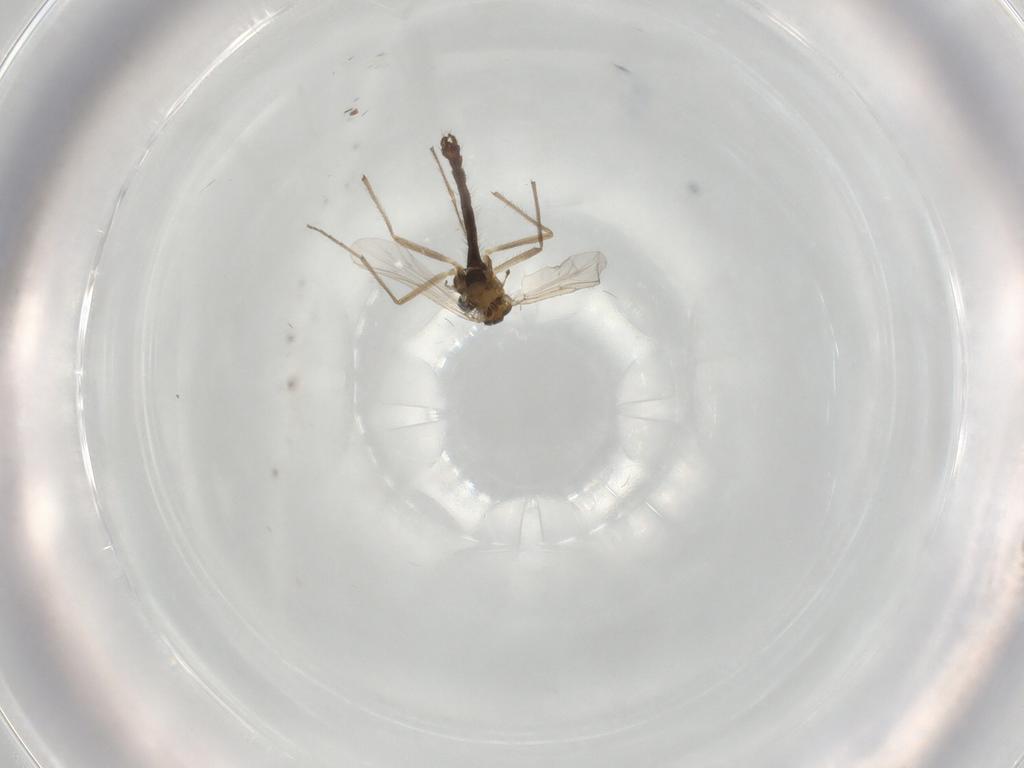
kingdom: Animalia
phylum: Arthropoda
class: Insecta
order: Diptera
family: Chironomidae
